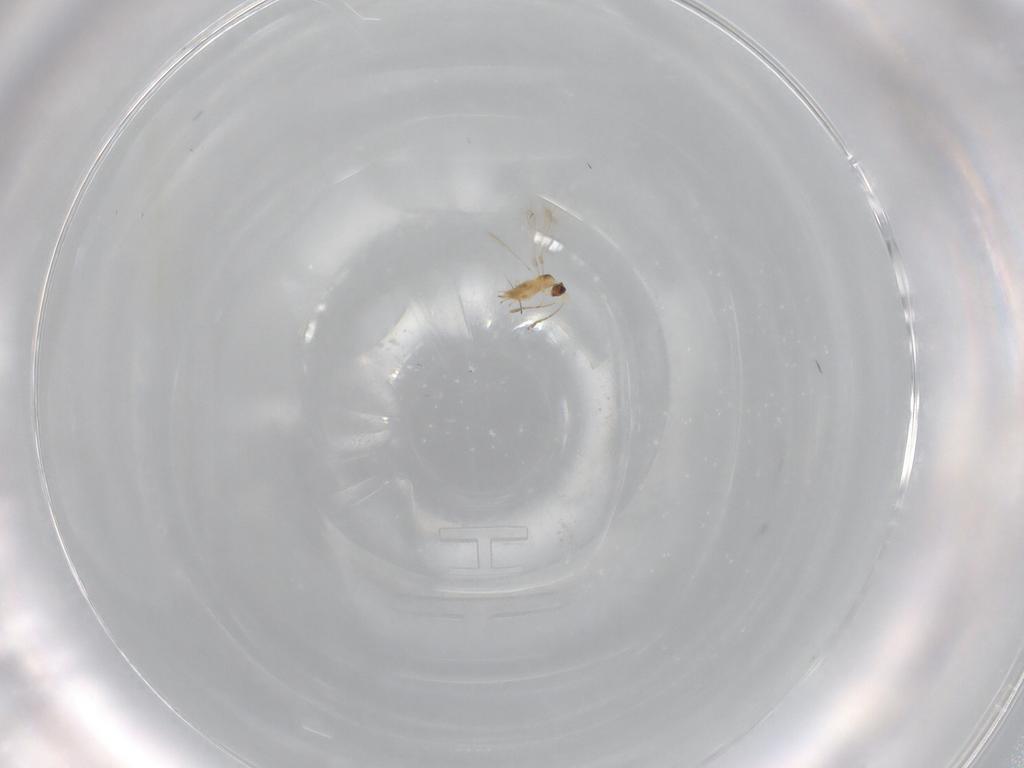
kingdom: Animalia
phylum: Arthropoda
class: Insecta
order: Hymenoptera
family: Mymaridae
